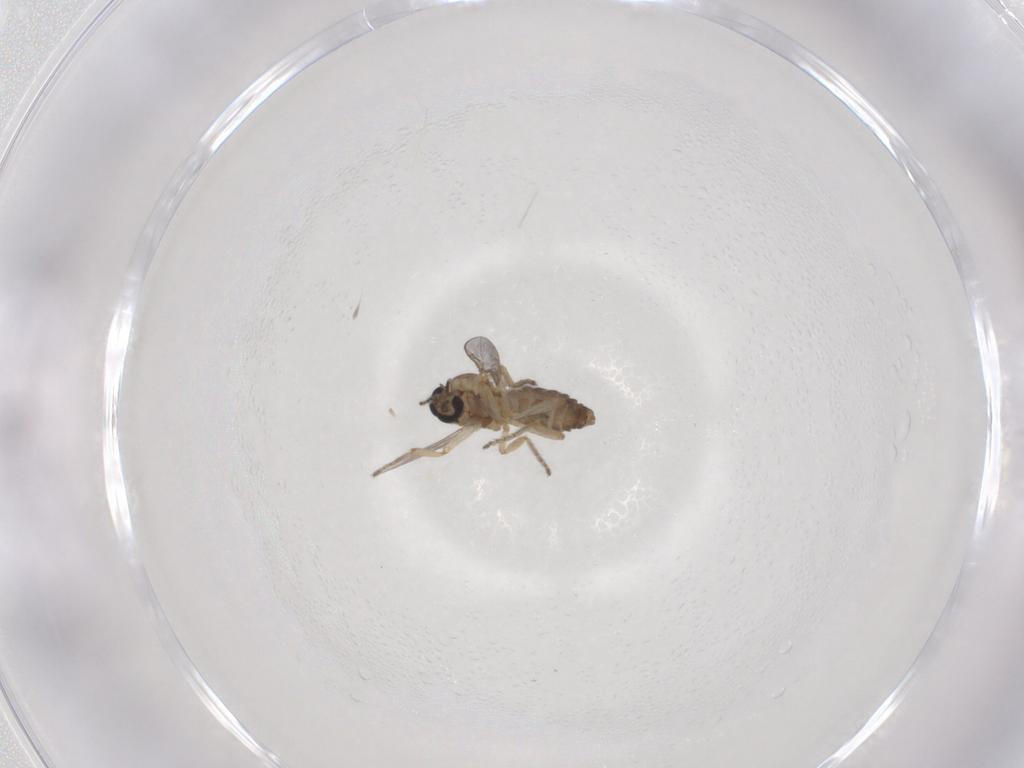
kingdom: Animalia
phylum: Arthropoda
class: Insecta
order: Diptera
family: Ceratopogonidae
